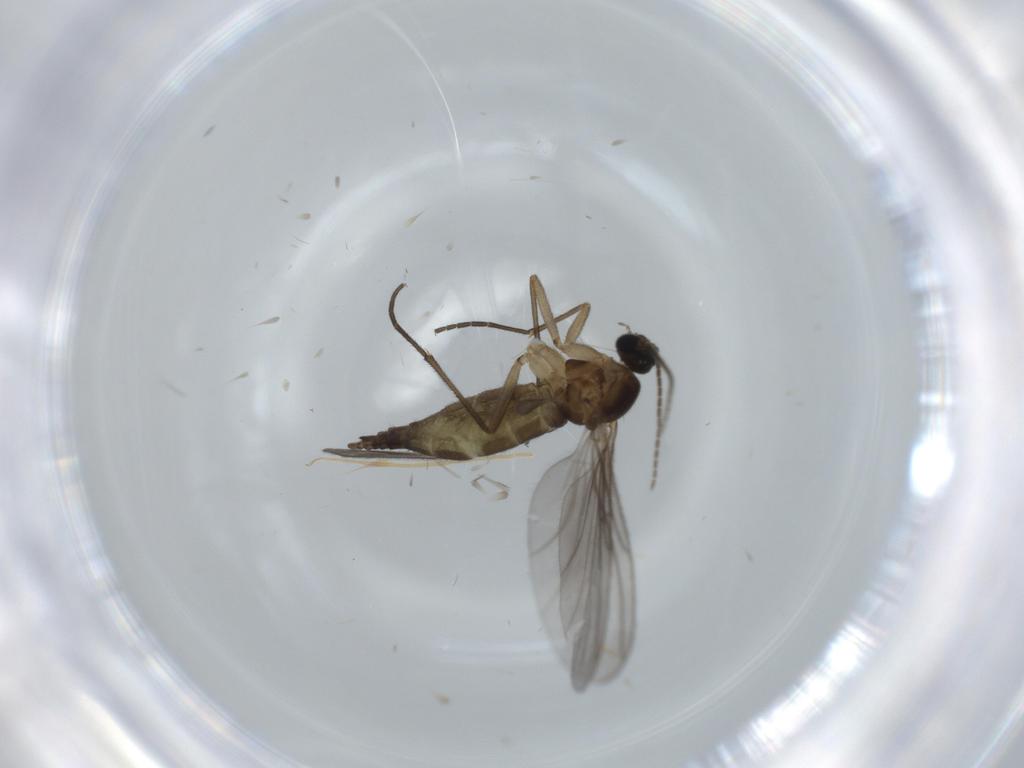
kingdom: Animalia
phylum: Arthropoda
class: Insecta
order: Diptera
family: Sciaridae
